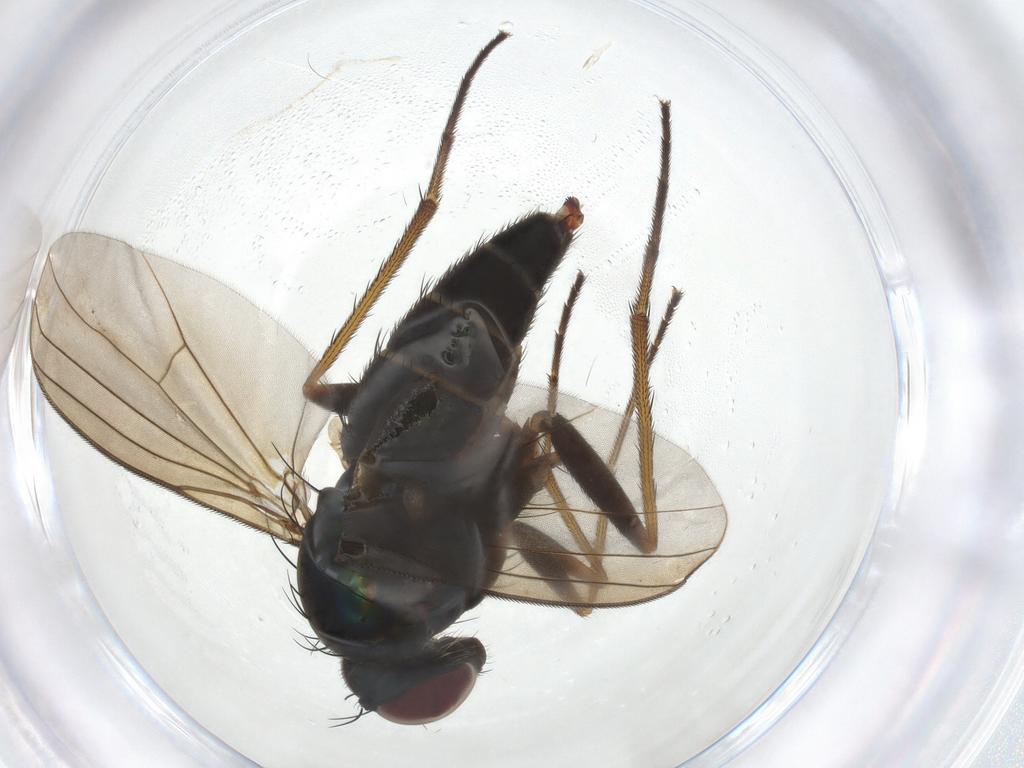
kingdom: Animalia
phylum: Arthropoda
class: Insecta
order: Diptera
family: Dolichopodidae
